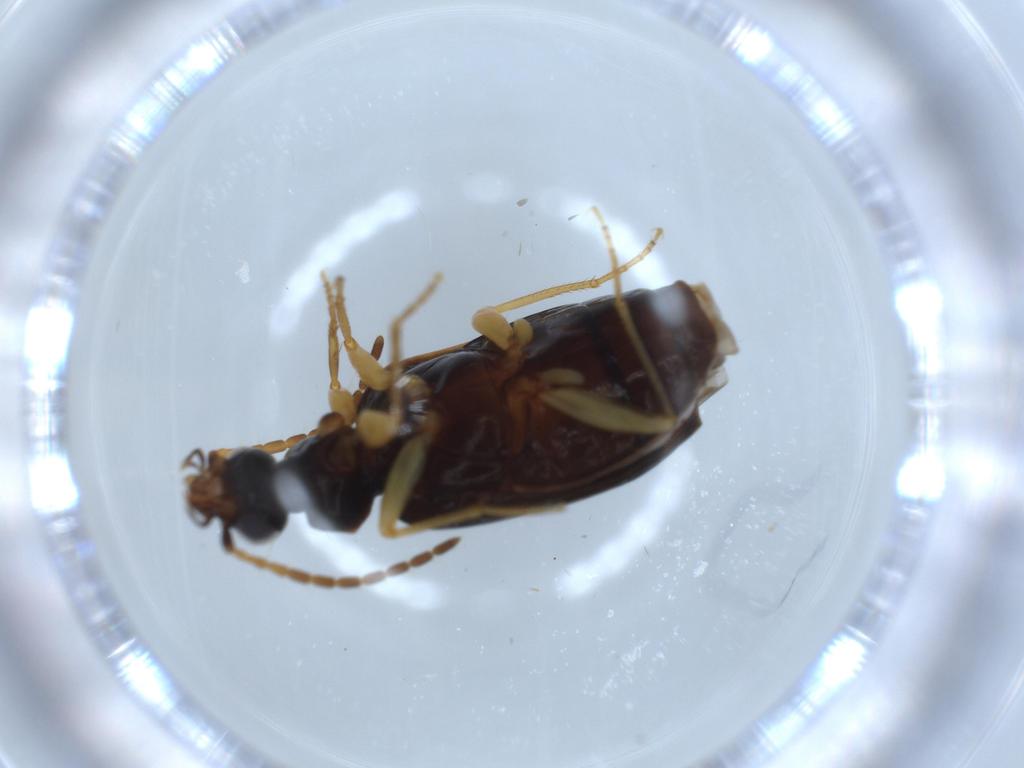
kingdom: Animalia
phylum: Arthropoda
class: Insecta
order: Coleoptera
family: Carabidae
